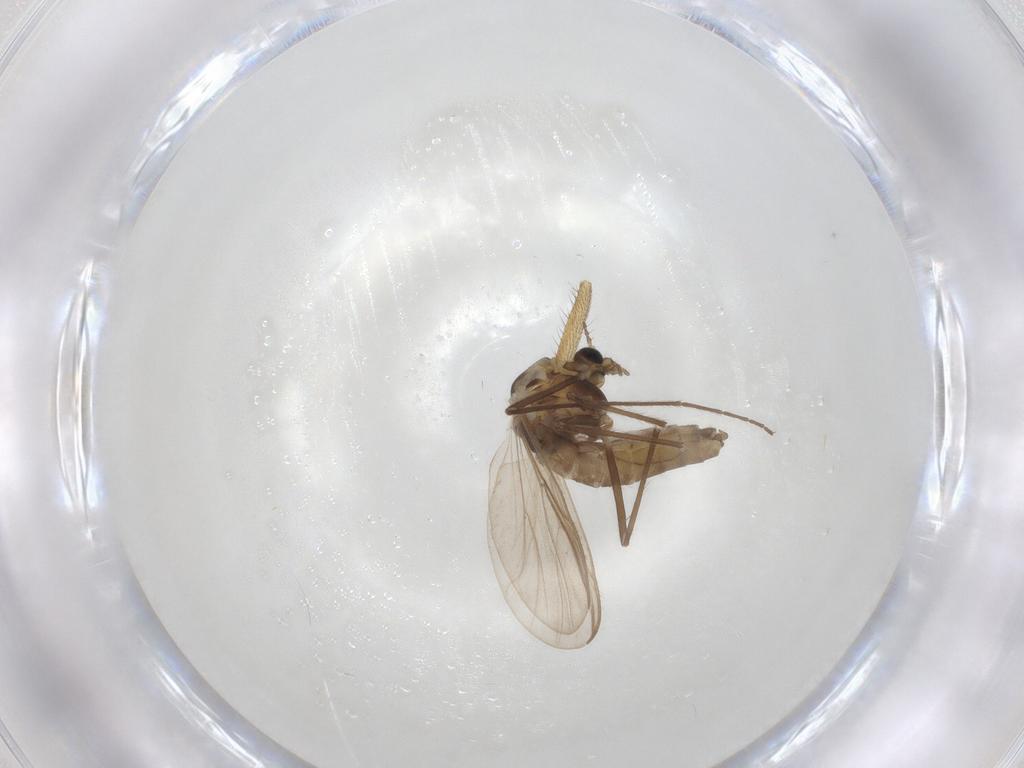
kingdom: Animalia
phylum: Arthropoda
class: Insecta
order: Diptera
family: Chironomidae
